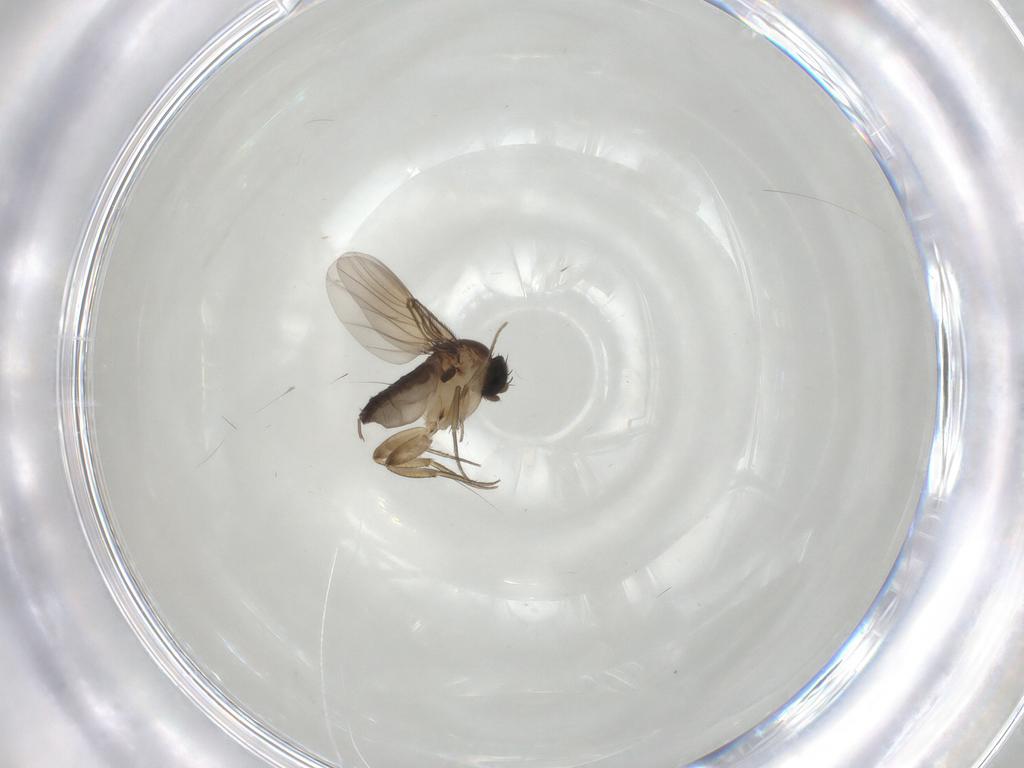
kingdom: Animalia
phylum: Arthropoda
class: Insecta
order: Diptera
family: Phoridae
